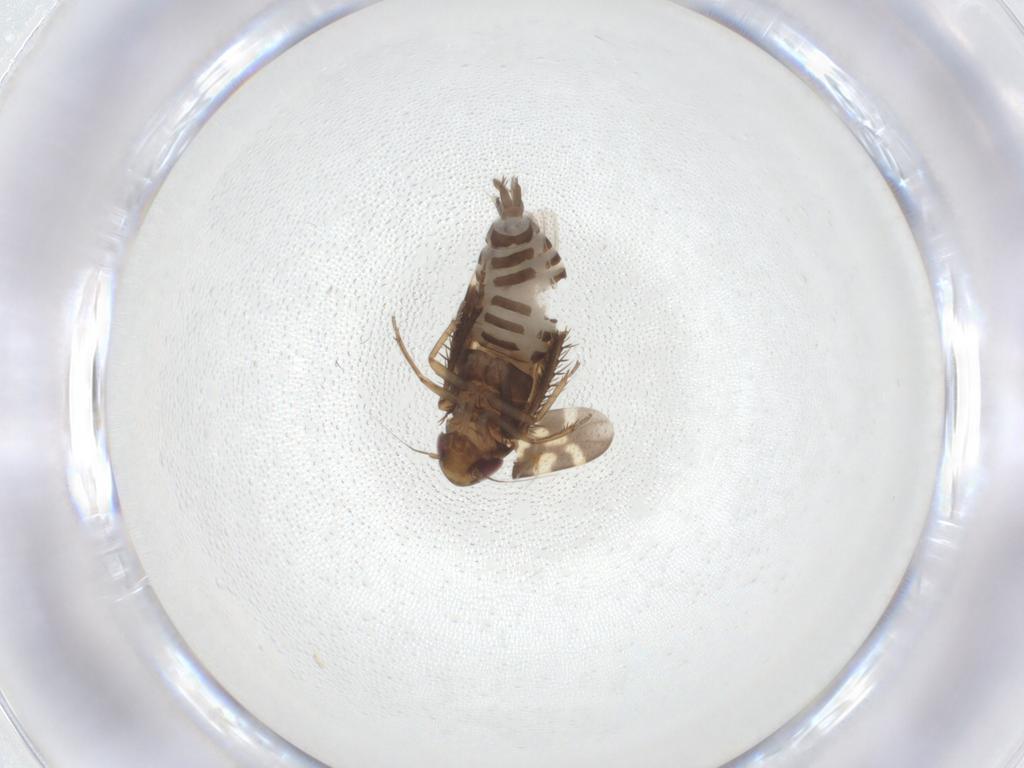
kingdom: Animalia
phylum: Arthropoda
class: Insecta
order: Hemiptera
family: Cicadellidae
